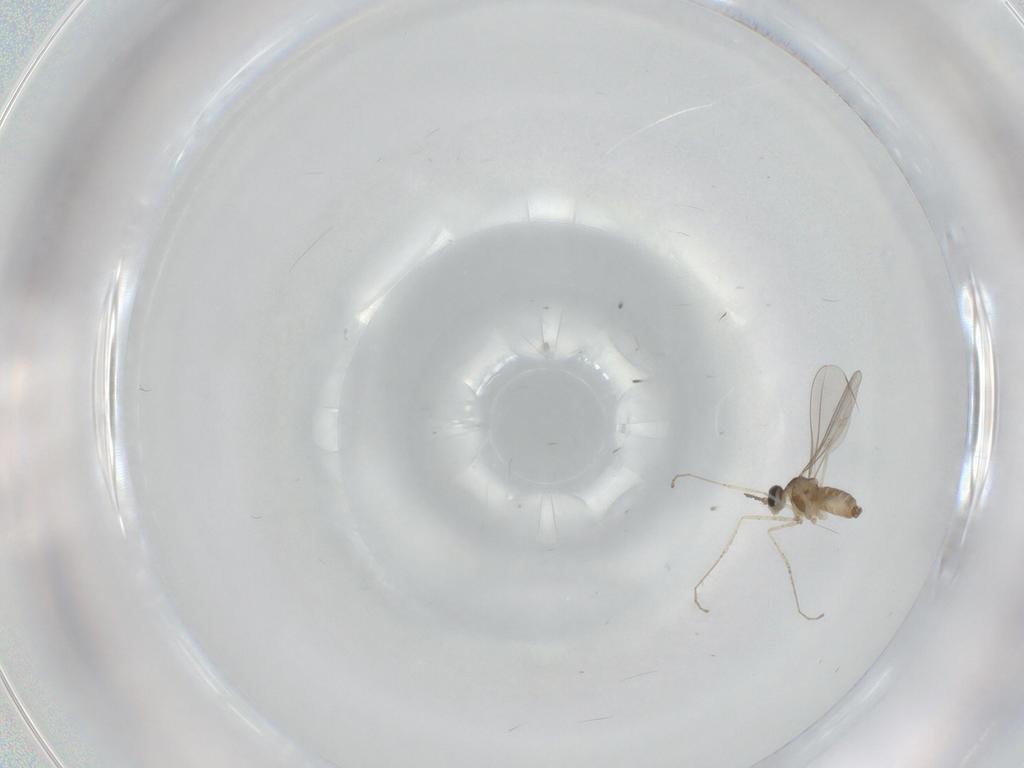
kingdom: Animalia
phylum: Arthropoda
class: Insecta
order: Diptera
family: Cecidomyiidae
